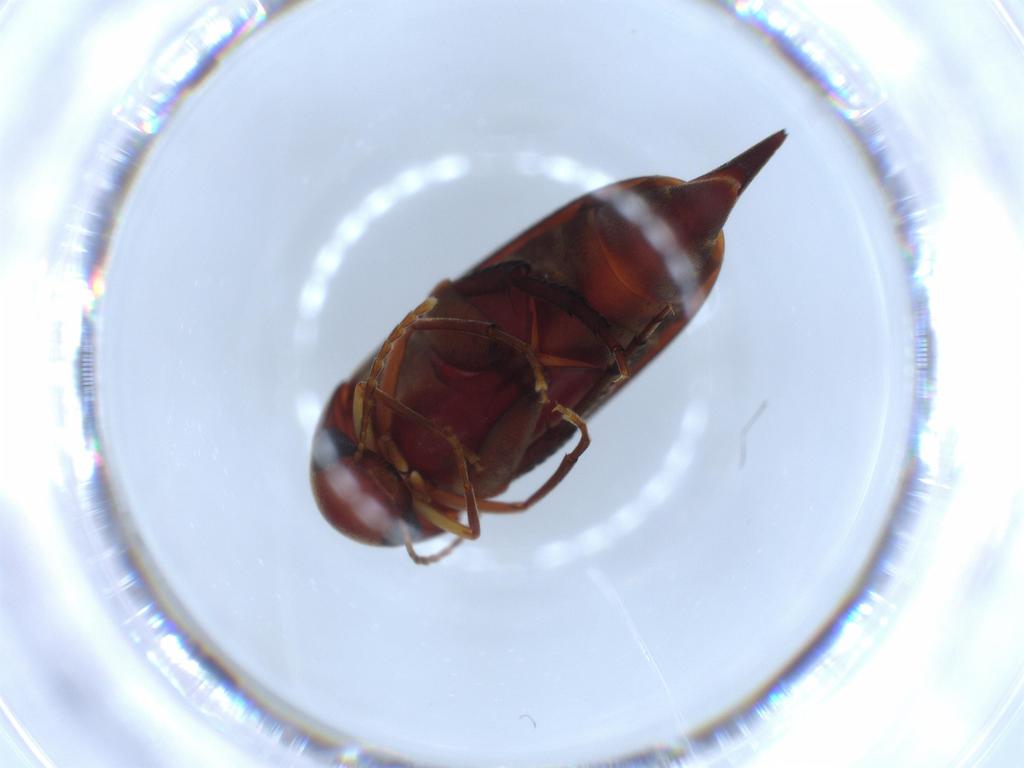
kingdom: Animalia
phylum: Arthropoda
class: Insecta
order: Coleoptera
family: Mordellidae
